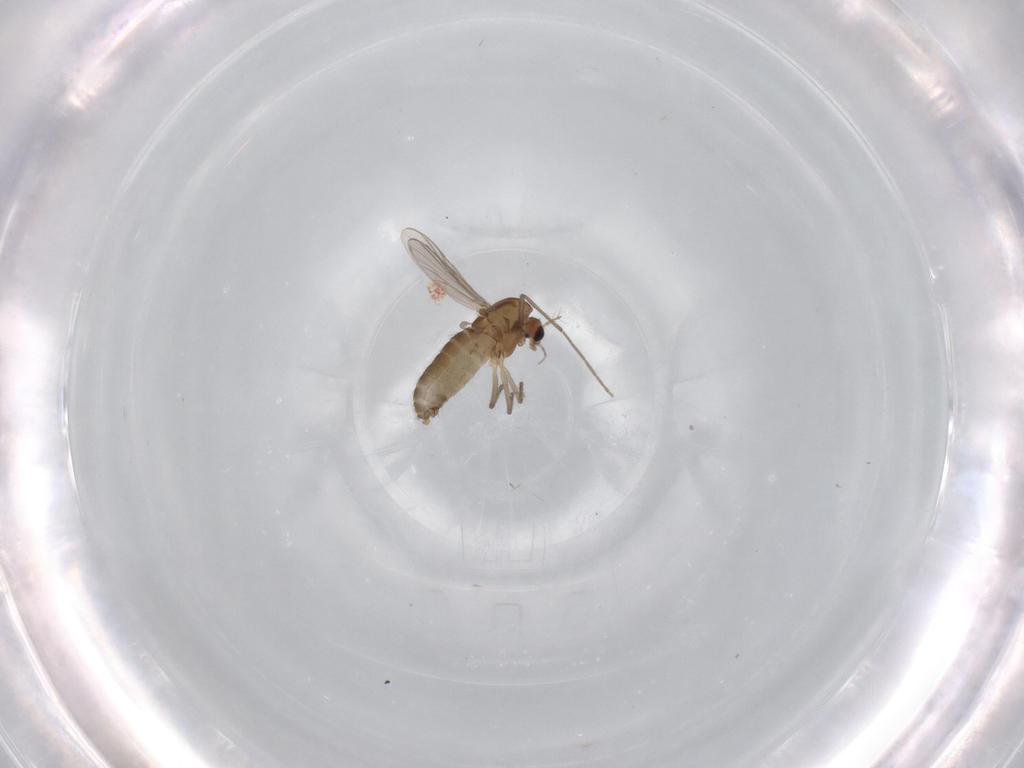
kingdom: Animalia
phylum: Arthropoda
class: Insecta
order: Diptera
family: Chironomidae
